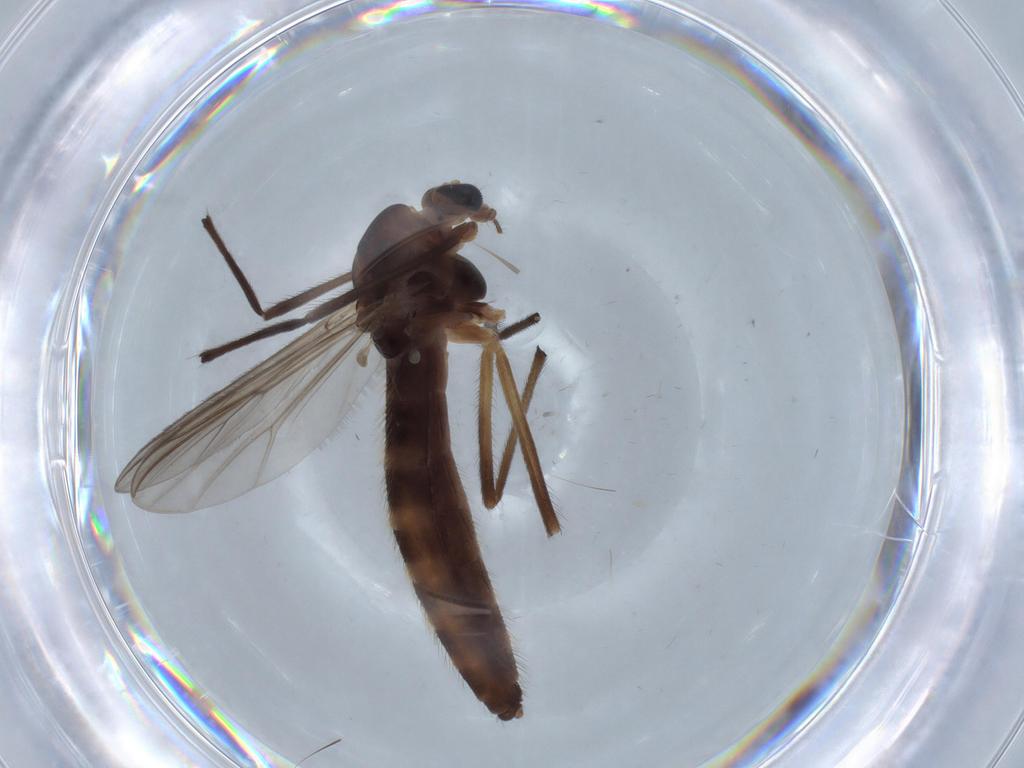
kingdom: Animalia
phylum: Arthropoda
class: Insecta
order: Diptera
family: Chironomidae
